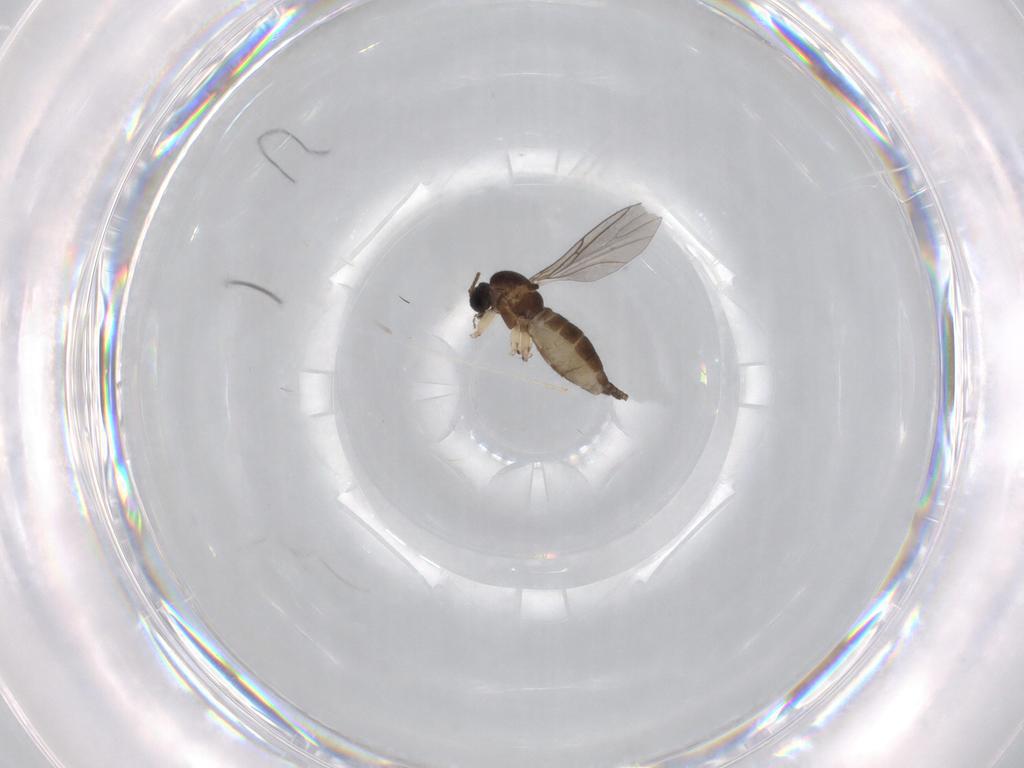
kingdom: Animalia
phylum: Arthropoda
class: Insecta
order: Diptera
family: Sciaridae
